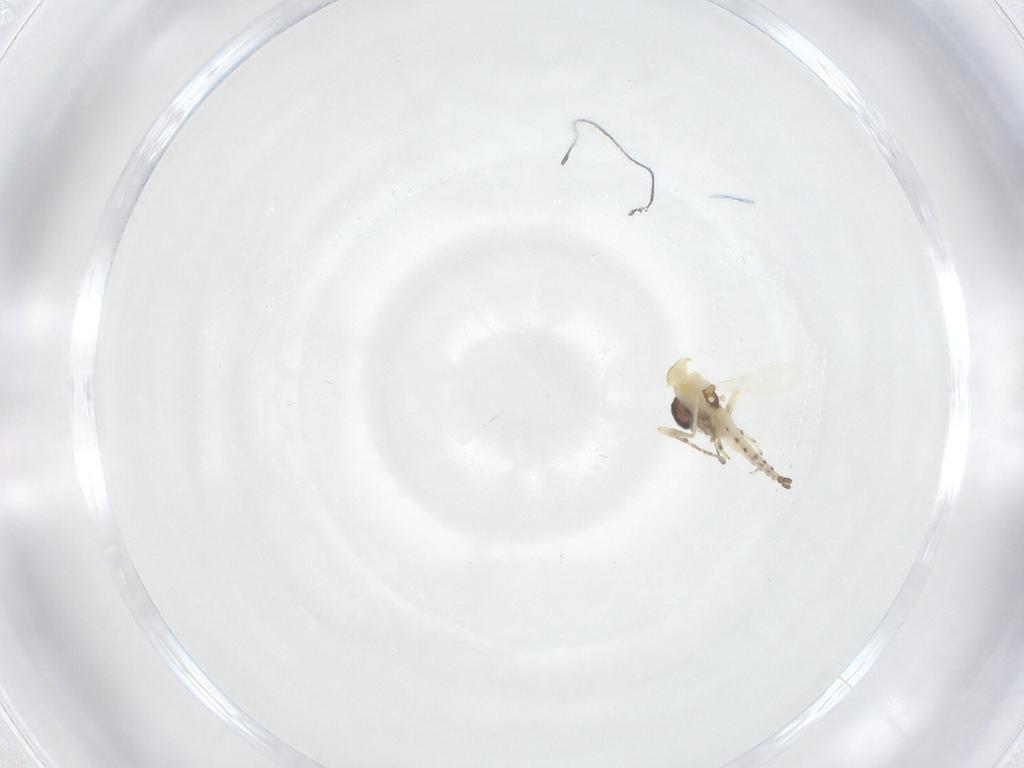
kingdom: Animalia
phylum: Arthropoda
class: Insecta
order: Diptera
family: Ceratopogonidae
